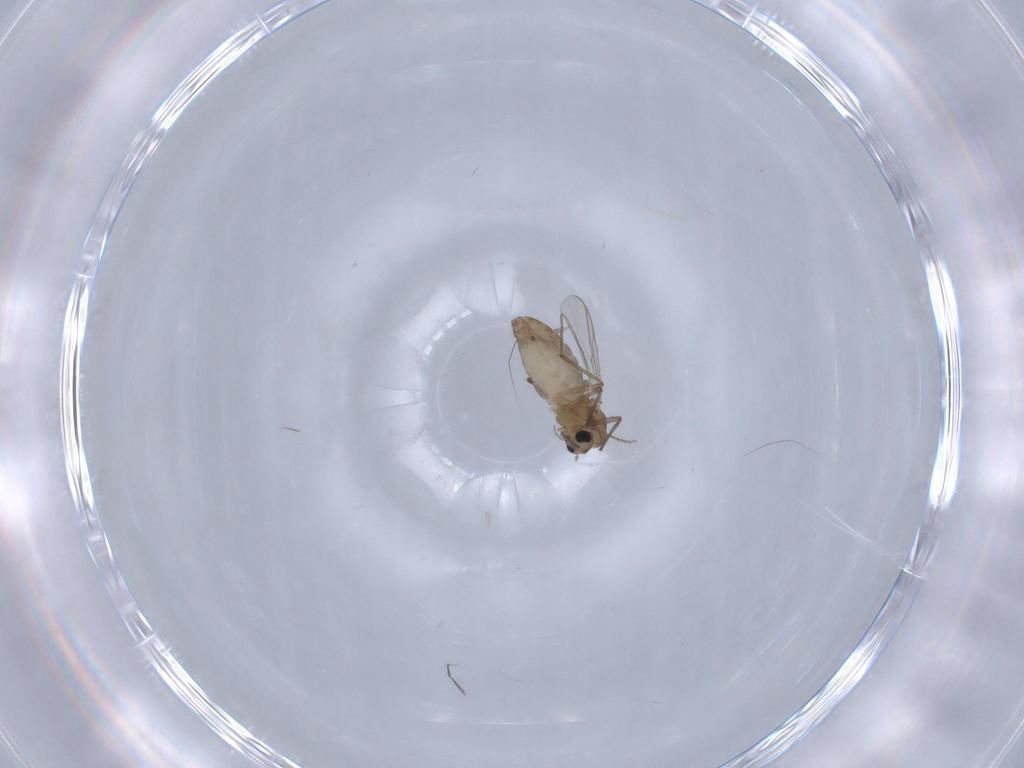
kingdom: Animalia
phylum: Arthropoda
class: Insecta
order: Diptera
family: Chironomidae
